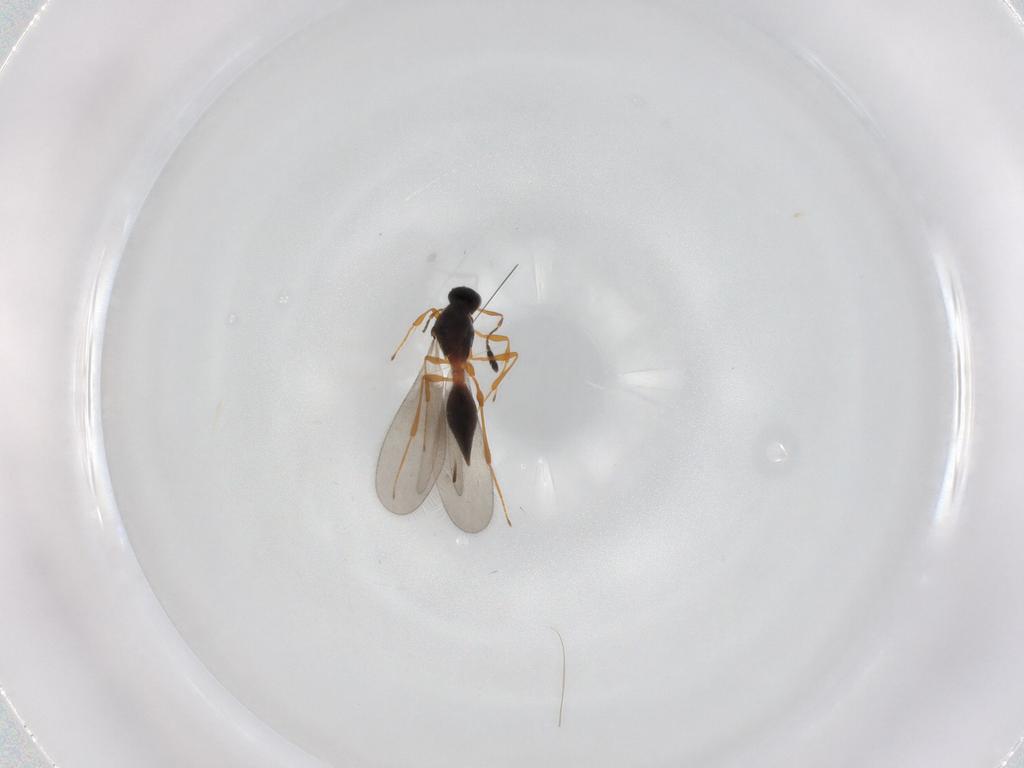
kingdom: Animalia
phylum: Arthropoda
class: Insecta
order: Hymenoptera
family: Platygastridae
